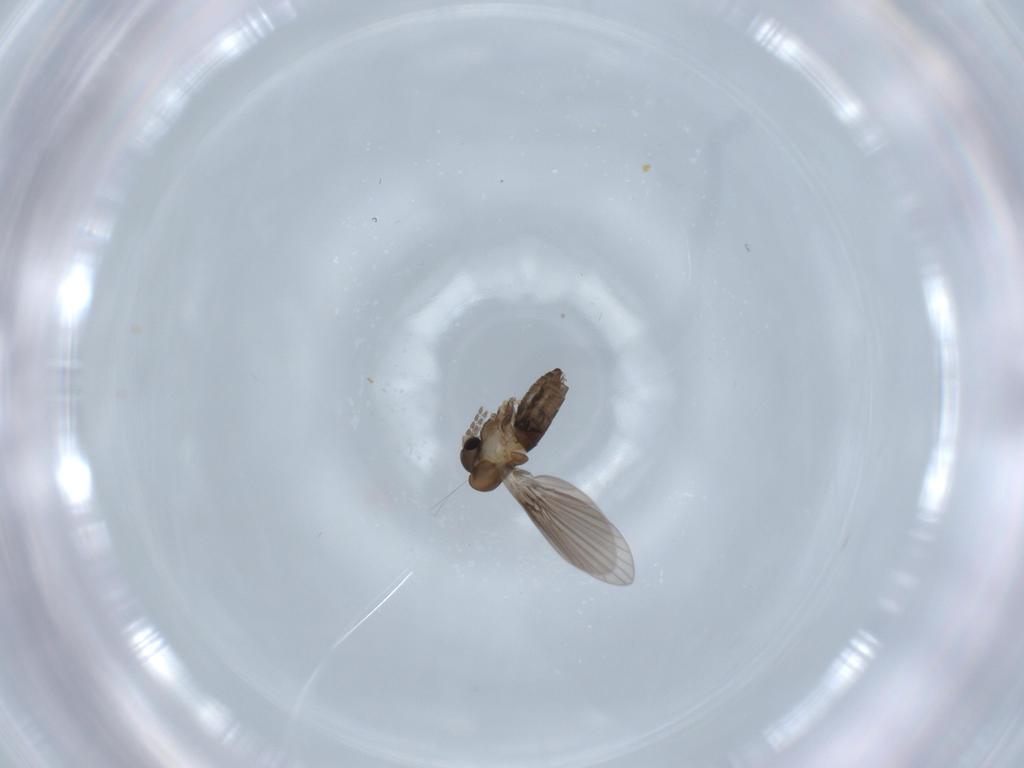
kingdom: Animalia
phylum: Arthropoda
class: Insecta
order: Diptera
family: Psychodidae
